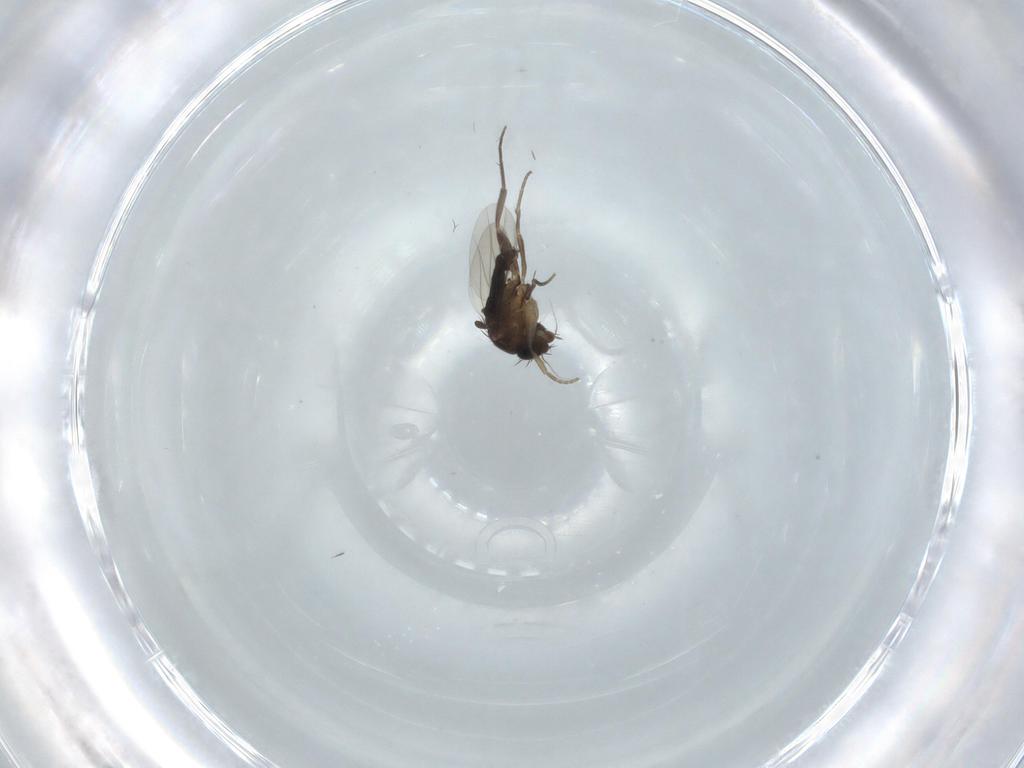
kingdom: Animalia
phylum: Arthropoda
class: Insecta
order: Diptera
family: Phoridae
